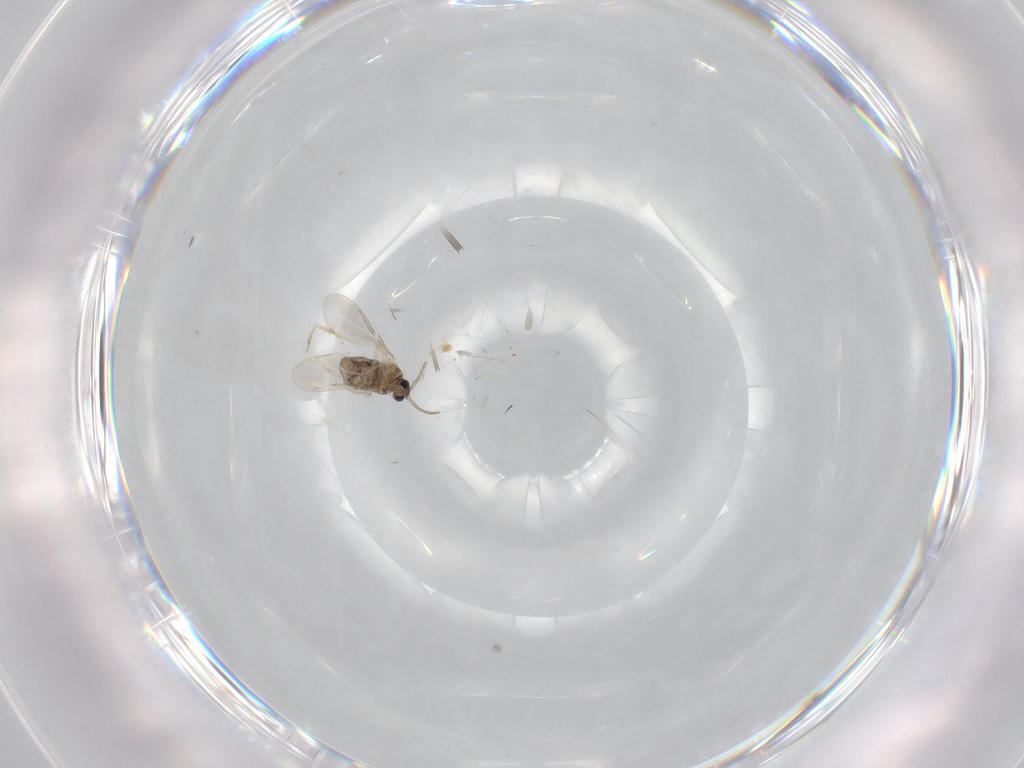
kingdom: Animalia
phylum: Arthropoda
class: Insecta
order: Diptera
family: Cecidomyiidae
